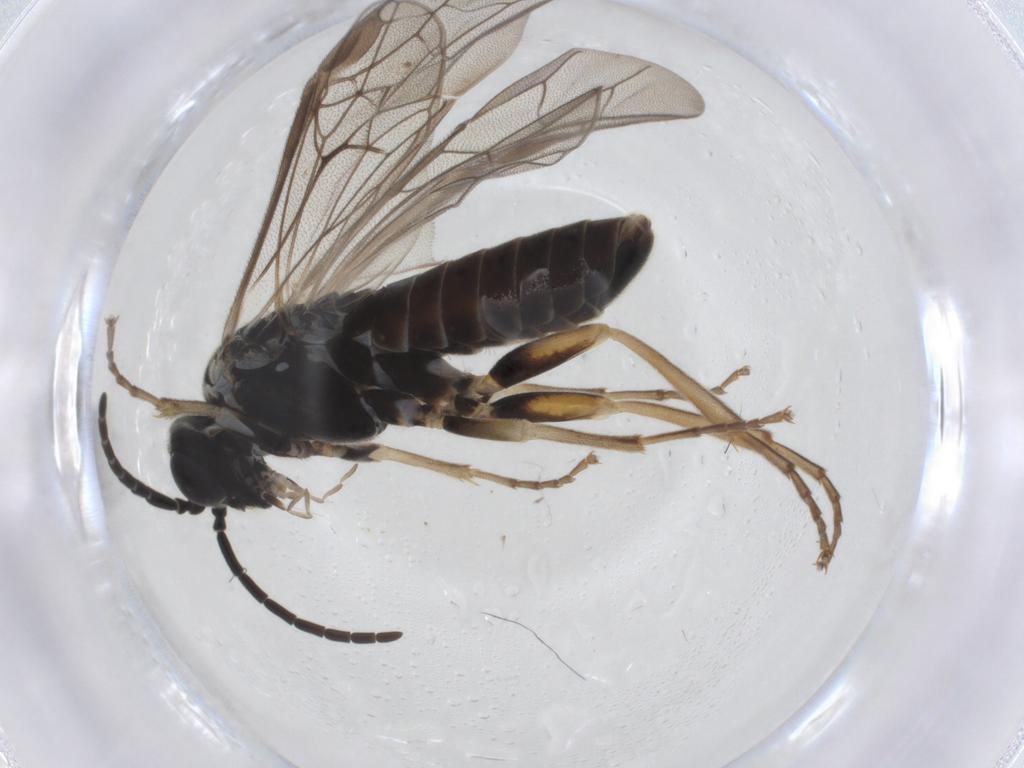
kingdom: Animalia
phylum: Arthropoda
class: Insecta
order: Hymenoptera
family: Tenthredinidae
